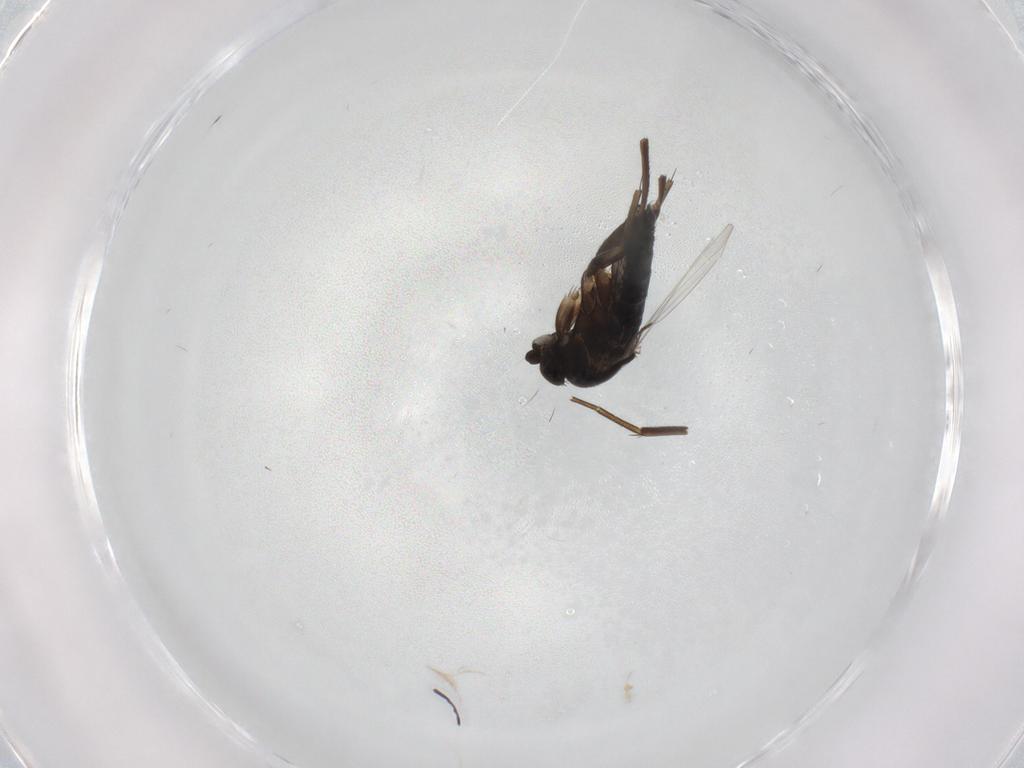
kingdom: Animalia
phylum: Arthropoda
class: Insecta
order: Diptera
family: Phoridae
